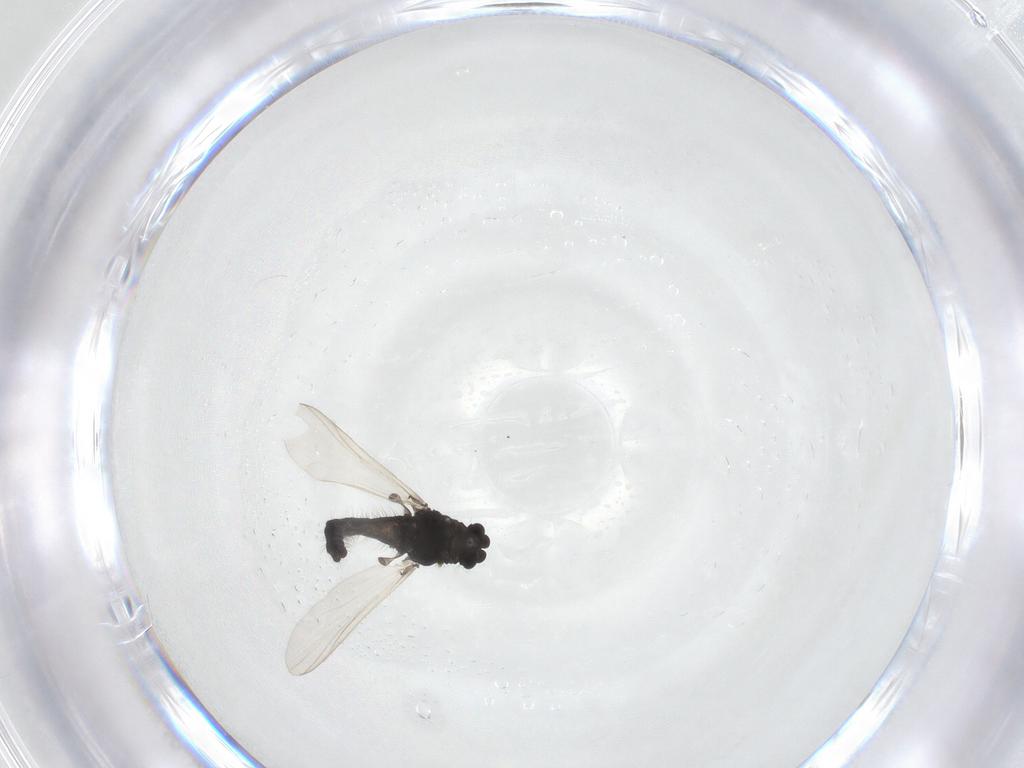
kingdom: Animalia
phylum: Arthropoda
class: Insecta
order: Diptera
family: Chironomidae
